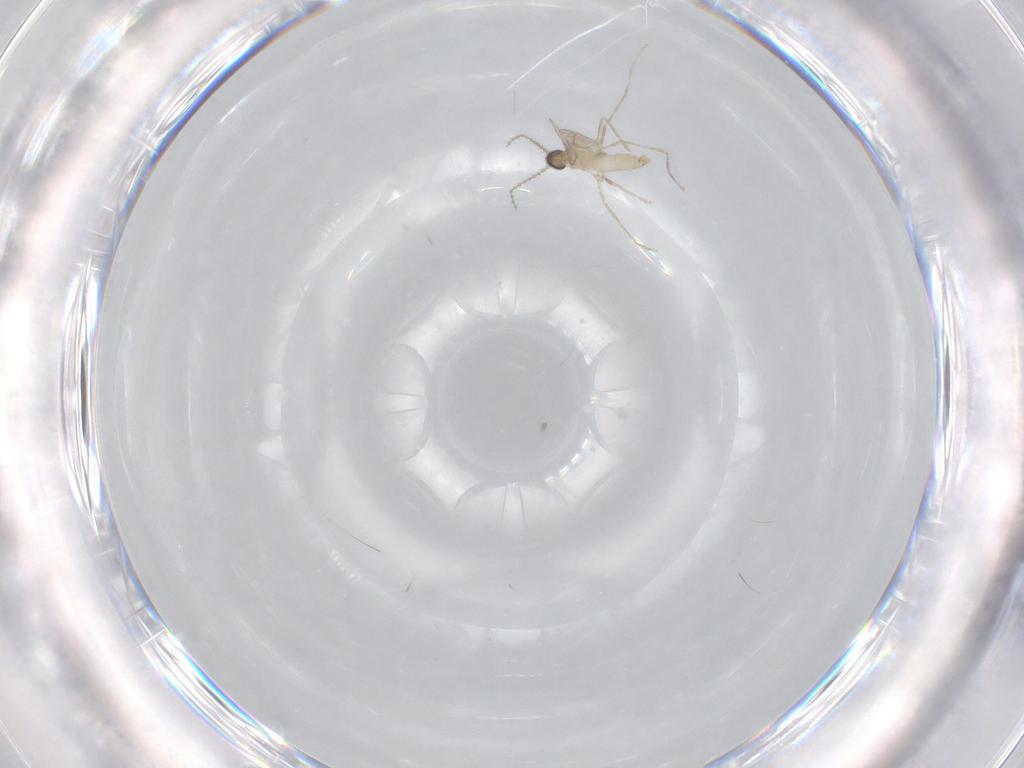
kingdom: Animalia
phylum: Arthropoda
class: Insecta
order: Diptera
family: Cecidomyiidae
